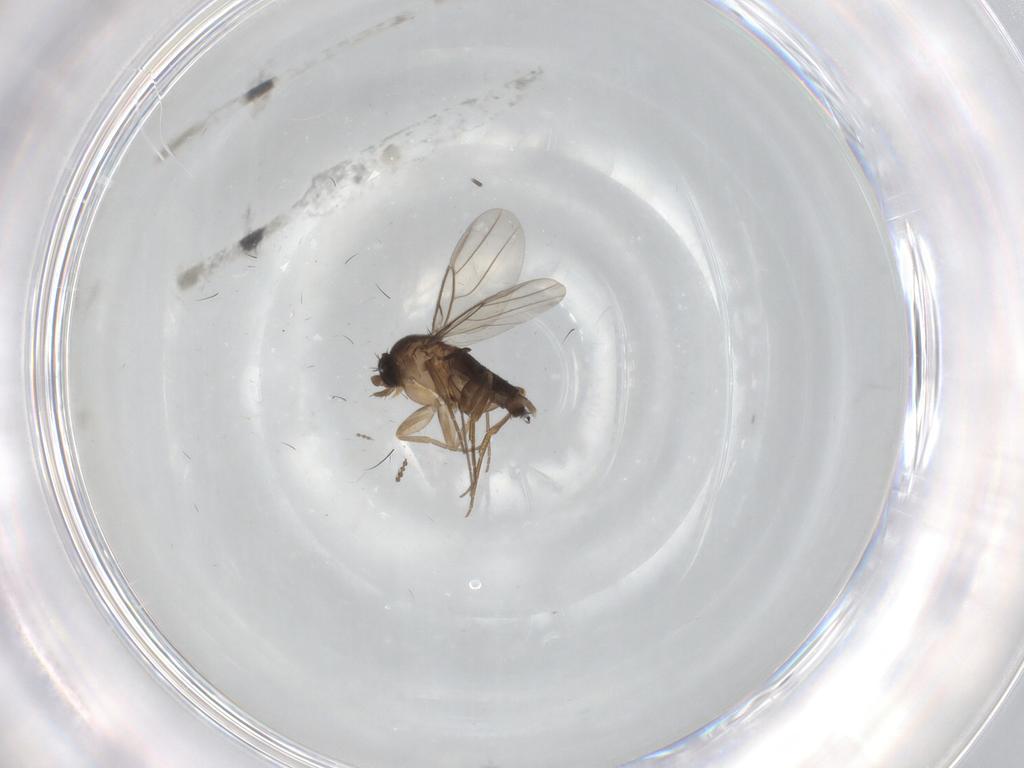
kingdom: Animalia
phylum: Arthropoda
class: Insecta
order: Diptera
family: Phoridae
